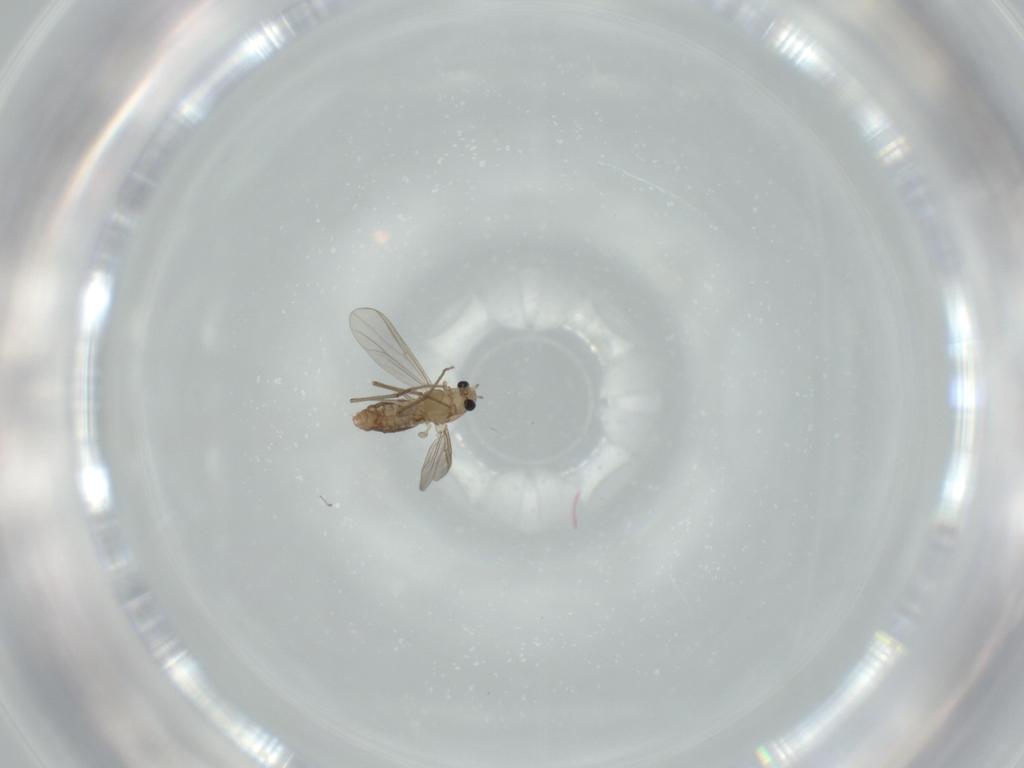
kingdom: Animalia
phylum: Arthropoda
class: Insecta
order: Diptera
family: Chironomidae
